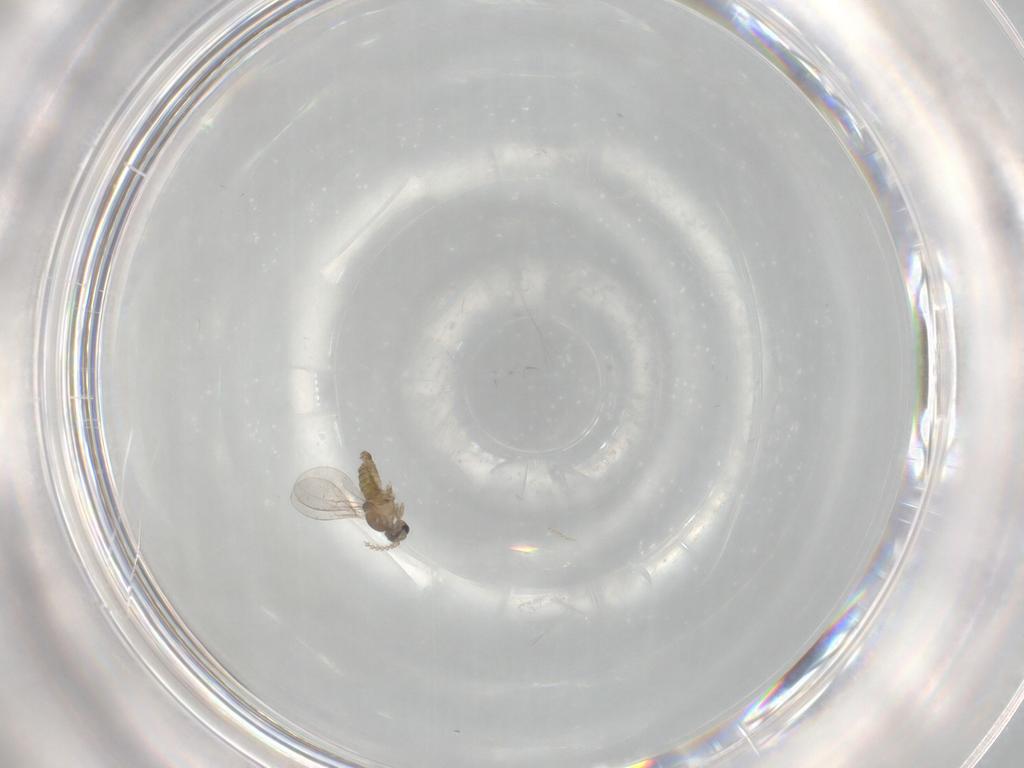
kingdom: Animalia
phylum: Arthropoda
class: Insecta
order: Diptera
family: Cecidomyiidae
